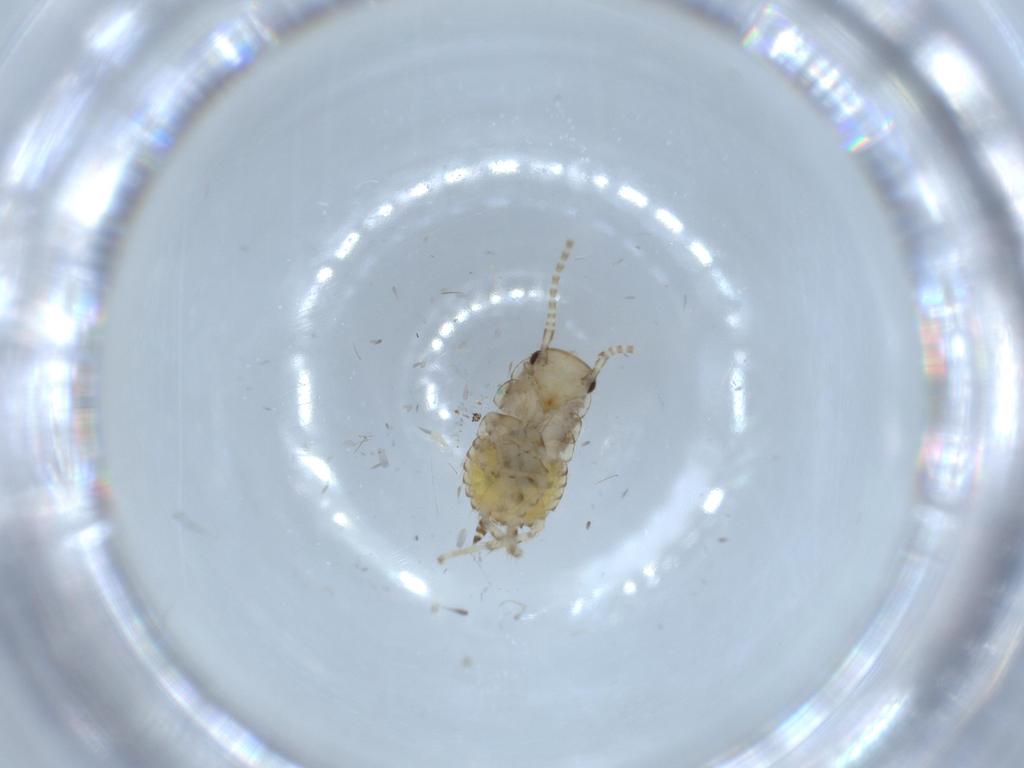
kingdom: Animalia
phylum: Arthropoda
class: Insecta
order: Blattodea
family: Ectobiidae
